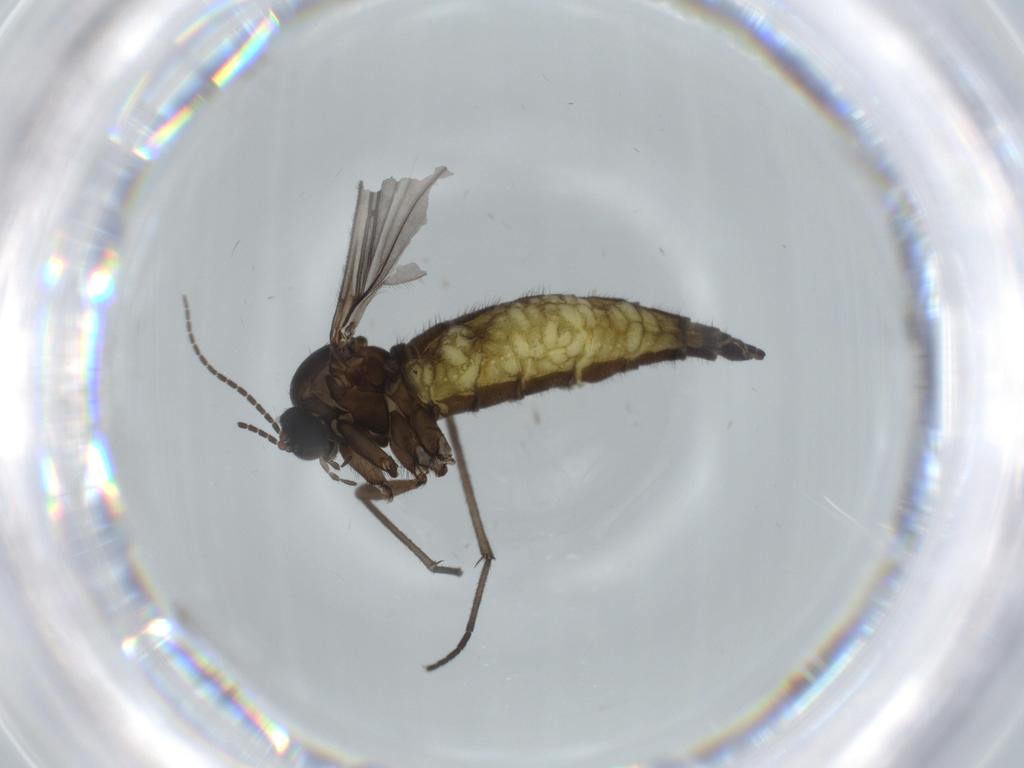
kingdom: Animalia
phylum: Arthropoda
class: Insecta
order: Diptera
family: Sciaridae
